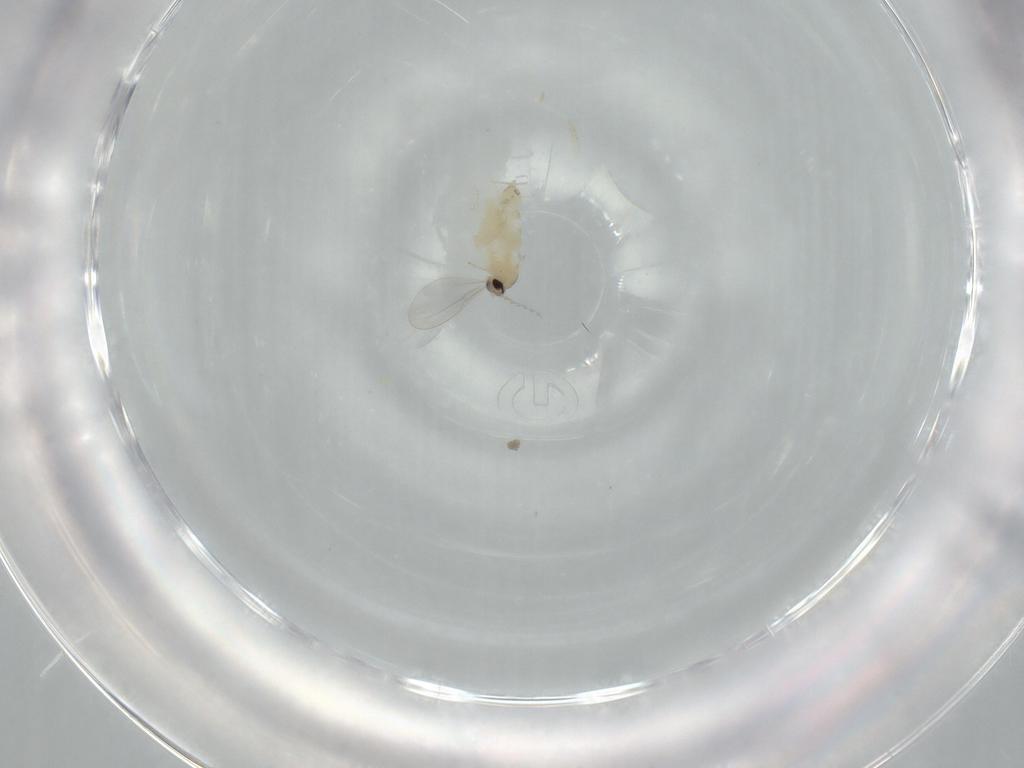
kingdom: Animalia
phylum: Arthropoda
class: Insecta
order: Diptera
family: Cecidomyiidae
